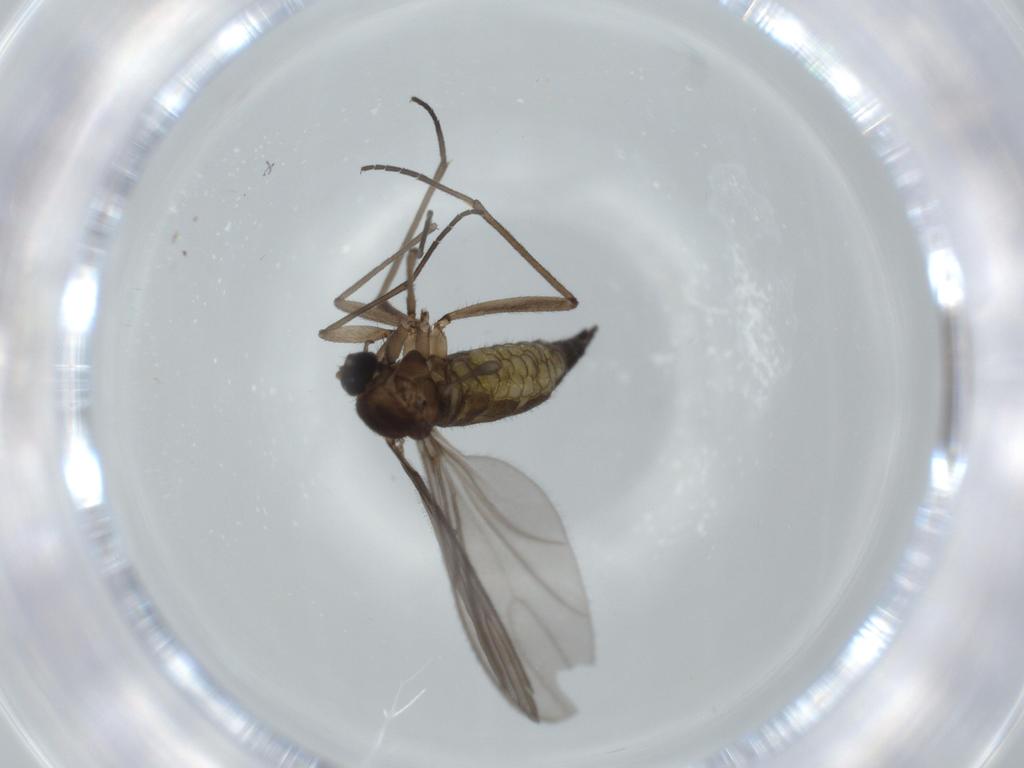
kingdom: Animalia
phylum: Arthropoda
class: Insecta
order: Diptera
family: Sciaridae
